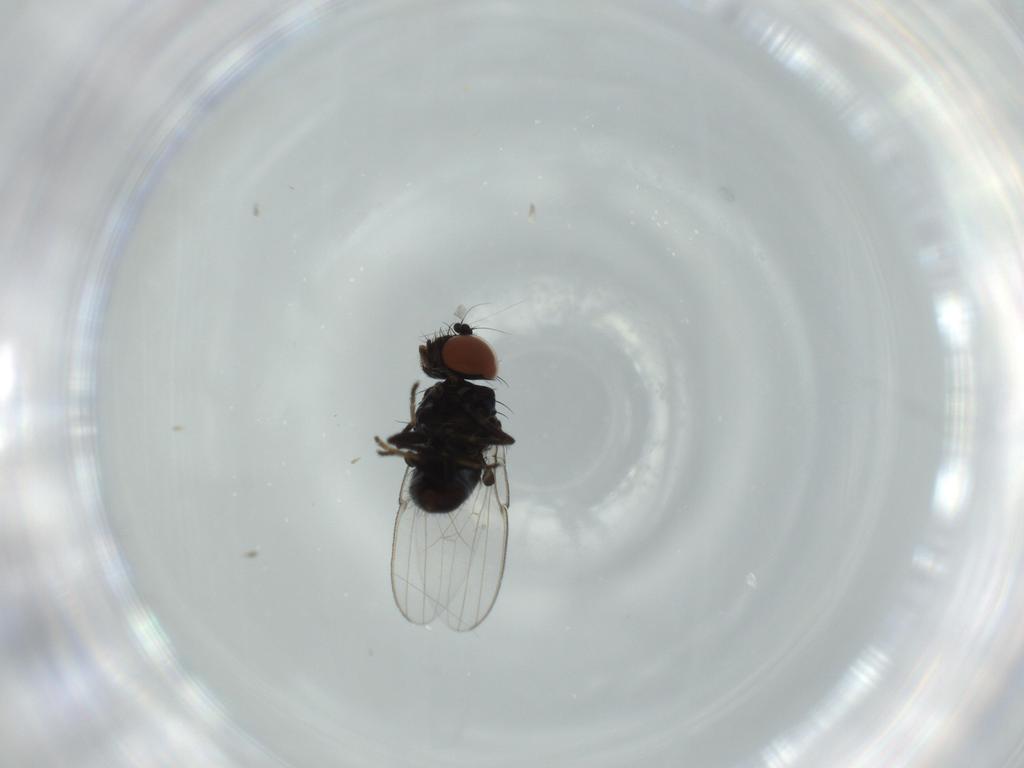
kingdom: Animalia
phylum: Arthropoda
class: Insecta
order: Diptera
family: Milichiidae
